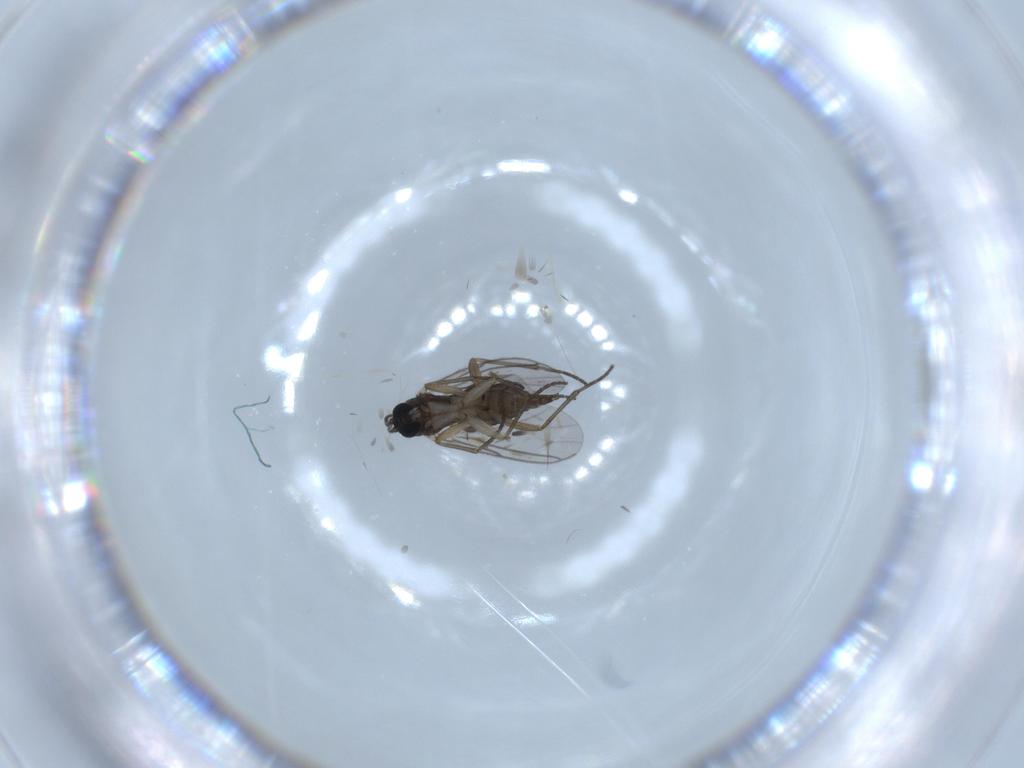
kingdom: Animalia
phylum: Arthropoda
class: Insecta
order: Diptera
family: Sciaridae
